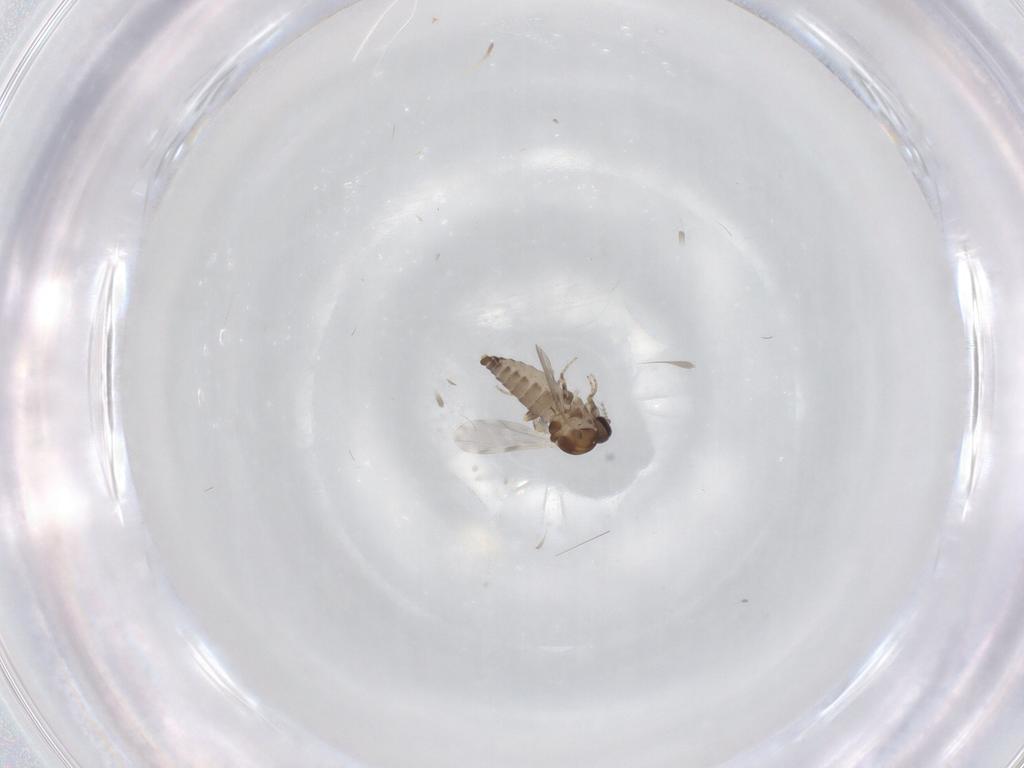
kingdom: Animalia
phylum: Arthropoda
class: Insecta
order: Diptera
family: Ceratopogonidae
